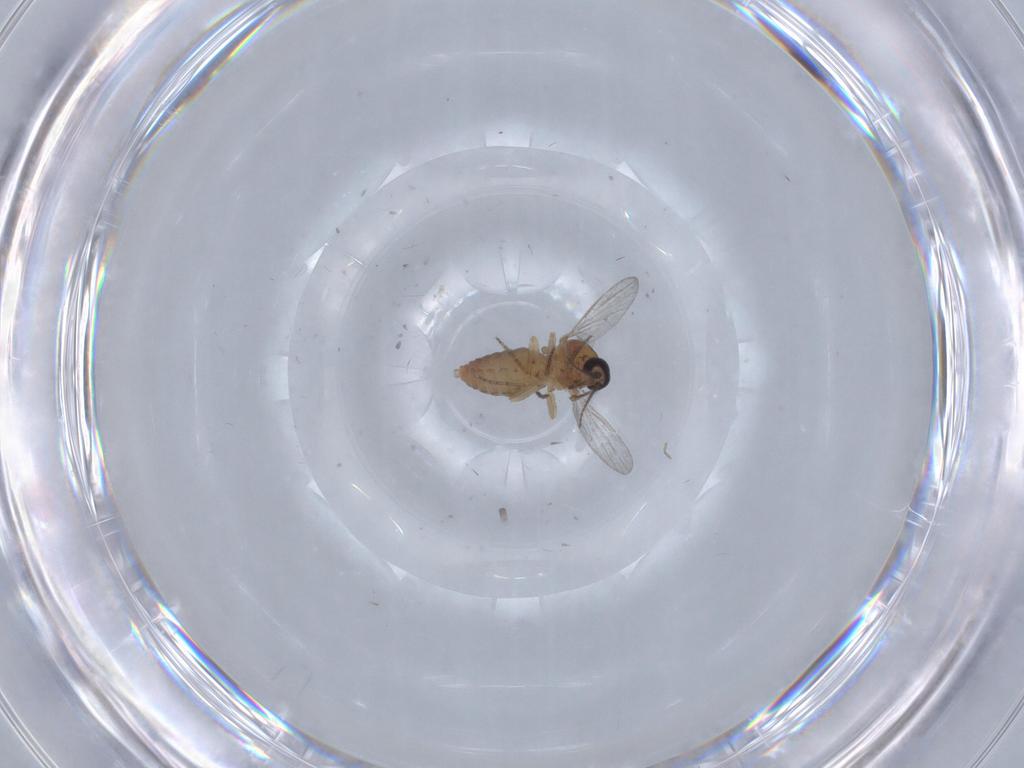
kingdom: Animalia
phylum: Arthropoda
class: Insecta
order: Diptera
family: Ceratopogonidae
